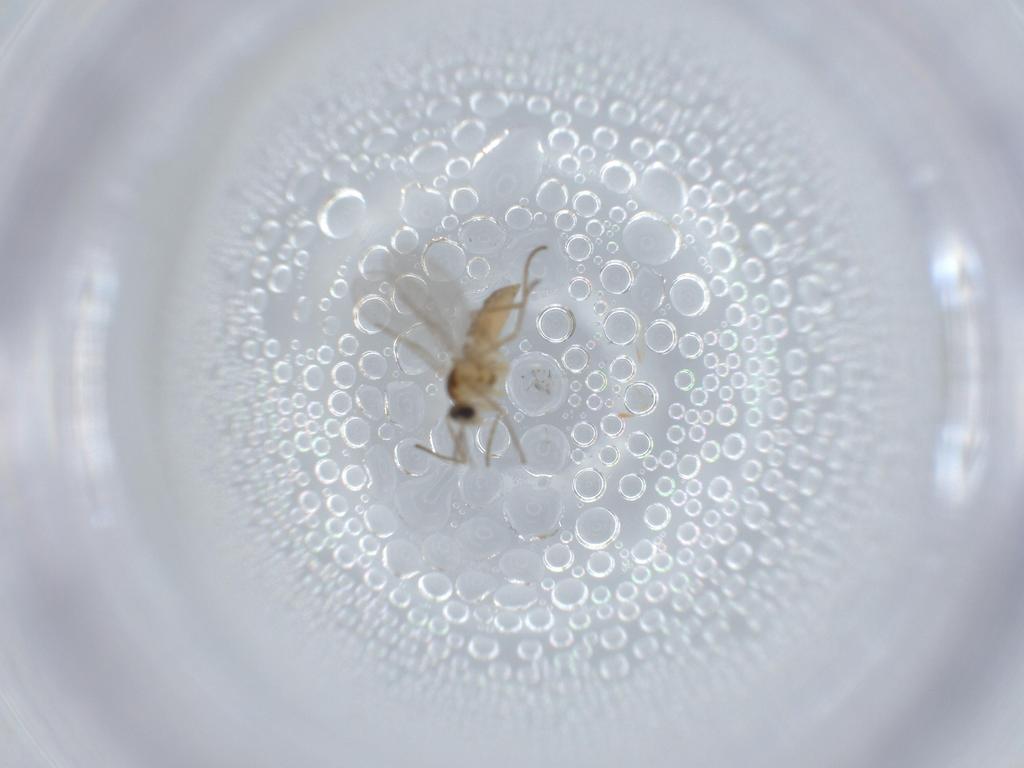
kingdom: Animalia
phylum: Arthropoda
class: Insecta
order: Diptera
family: Cecidomyiidae
